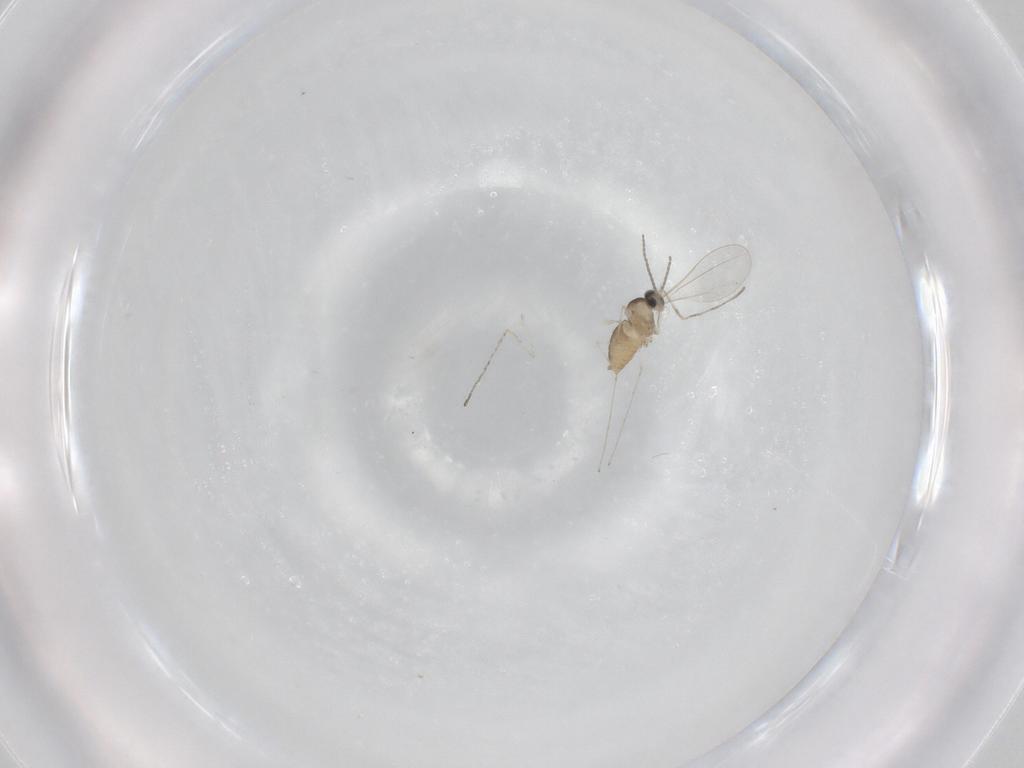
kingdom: Animalia
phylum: Arthropoda
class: Insecta
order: Diptera
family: Cecidomyiidae
